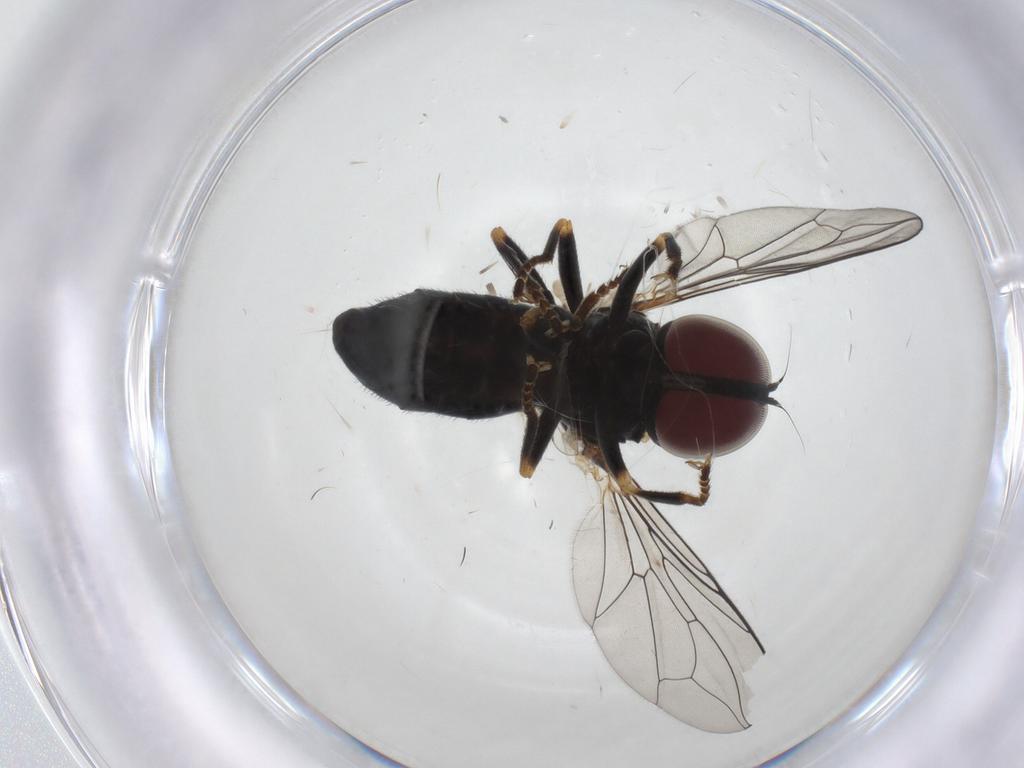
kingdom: Animalia
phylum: Arthropoda
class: Insecta
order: Diptera
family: Pipunculidae
